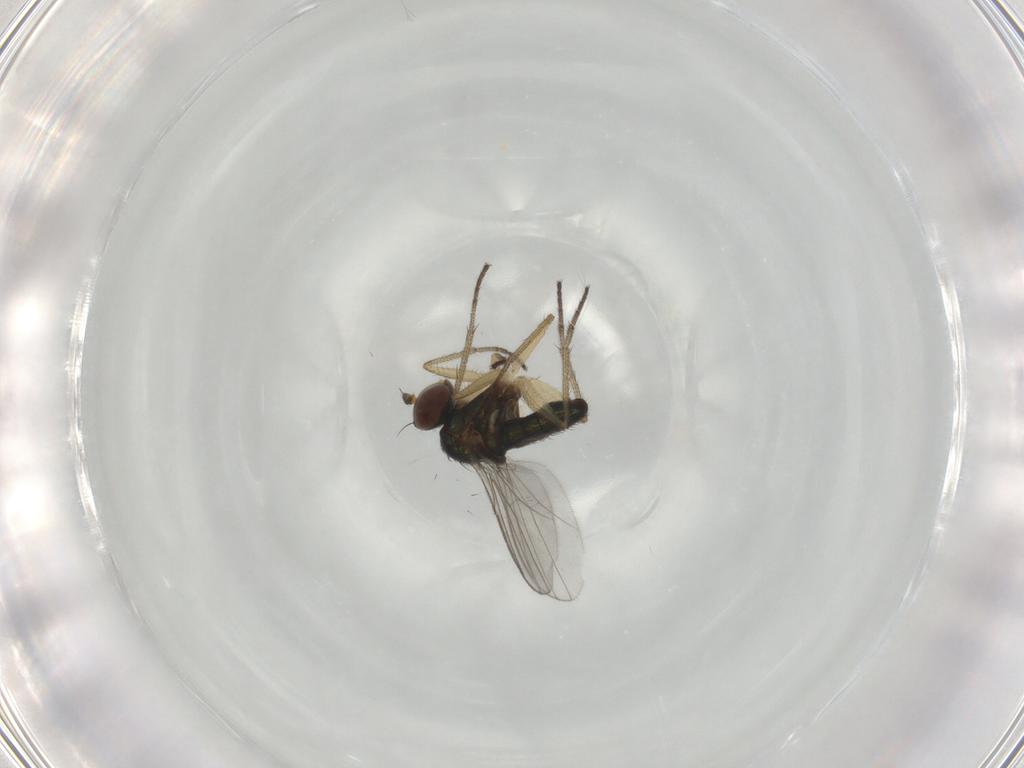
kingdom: Animalia
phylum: Arthropoda
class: Insecta
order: Diptera
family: Dolichopodidae
